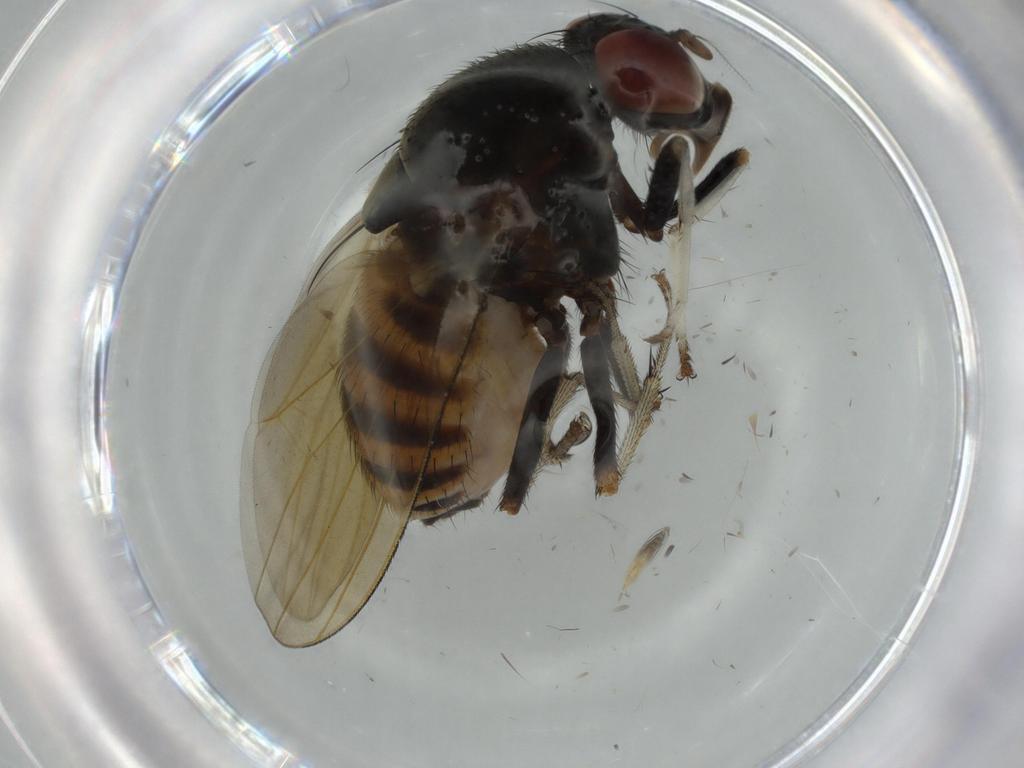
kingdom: Animalia
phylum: Arthropoda
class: Insecta
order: Diptera
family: Ceratopogonidae
